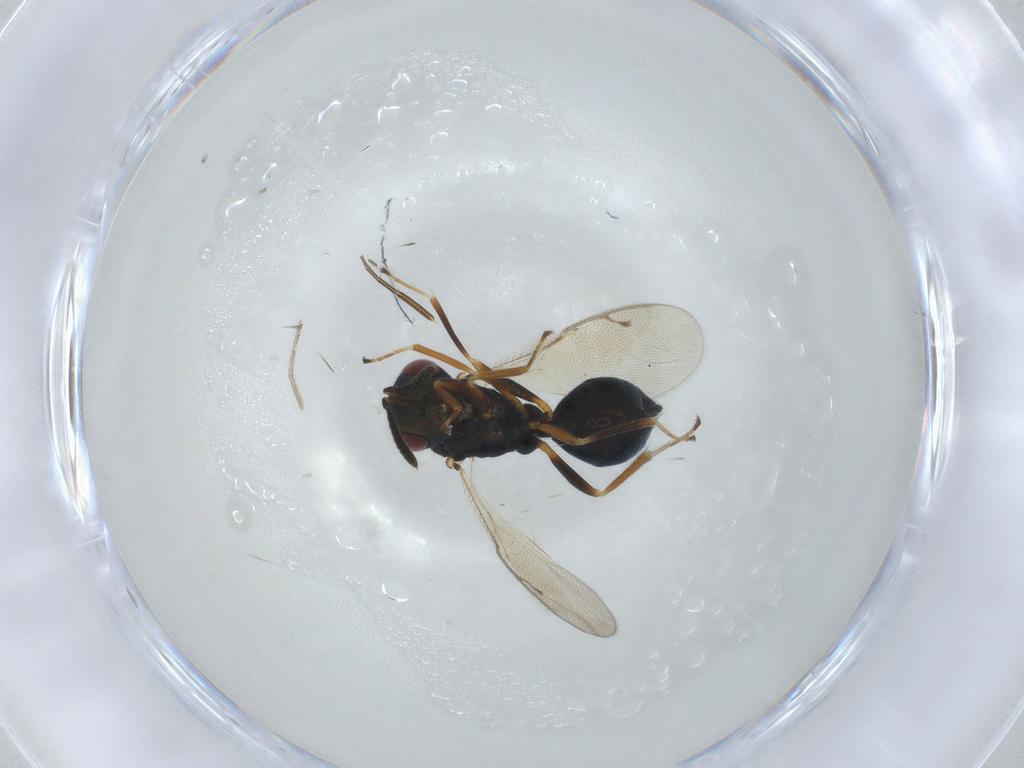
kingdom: Animalia
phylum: Arthropoda
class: Insecta
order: Hymenoptera
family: Pteromalidae
